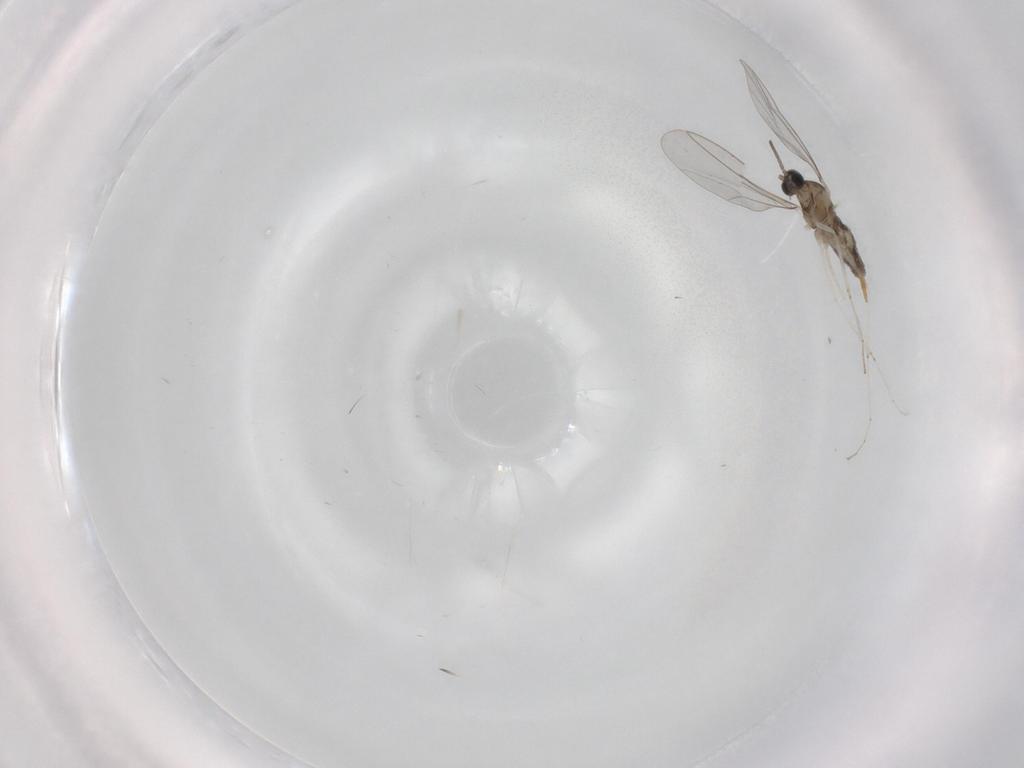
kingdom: Animalia
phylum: Arthropoda
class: Insecta
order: Diptera
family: Cecidomyiidae
